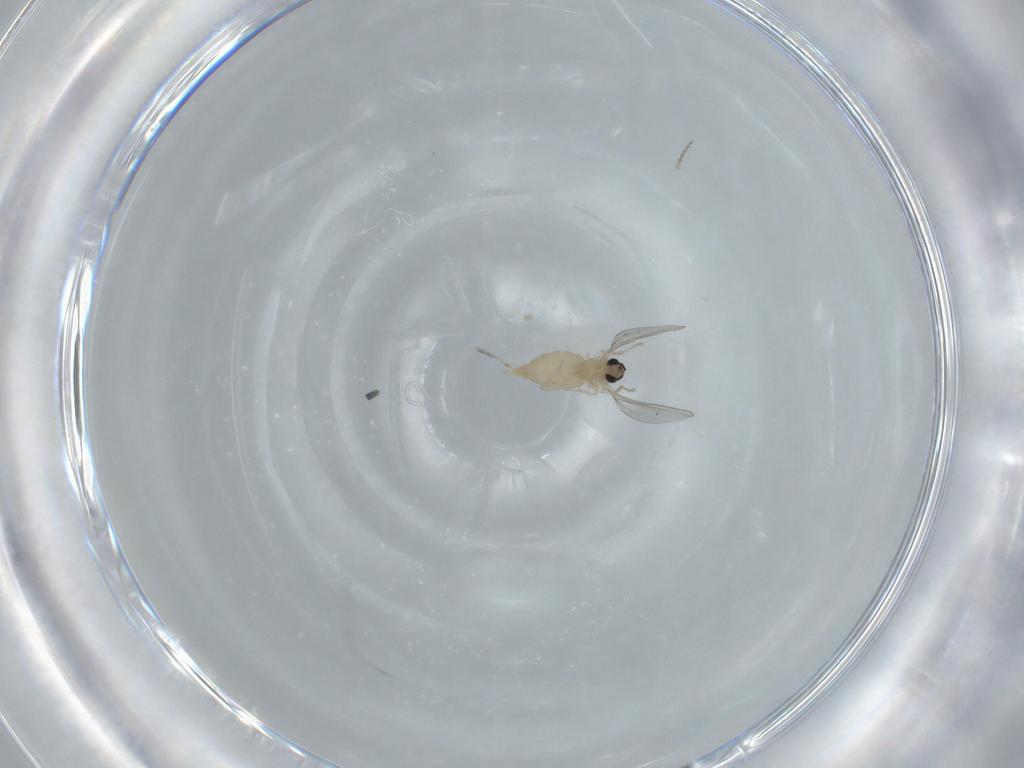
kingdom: Animalia
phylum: Arthropoda
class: Insecta
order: Diptera
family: Cecidomyiidae
